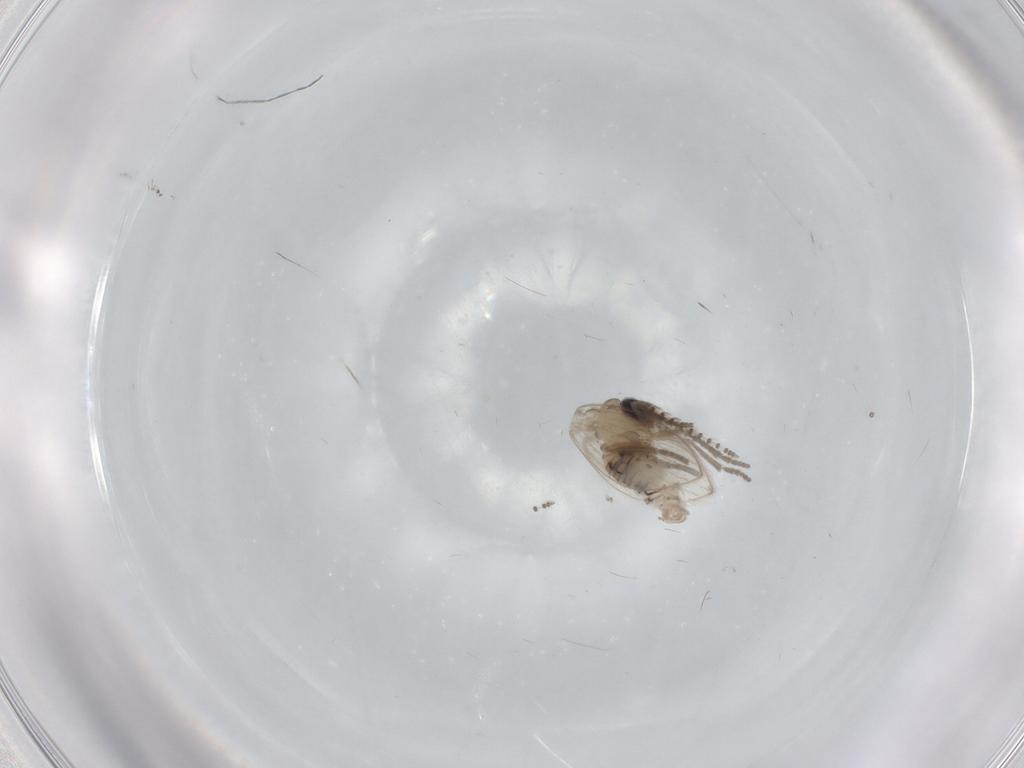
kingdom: Animalia
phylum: Arthropoda
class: Insecta
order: Diptera
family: Psychodidae
